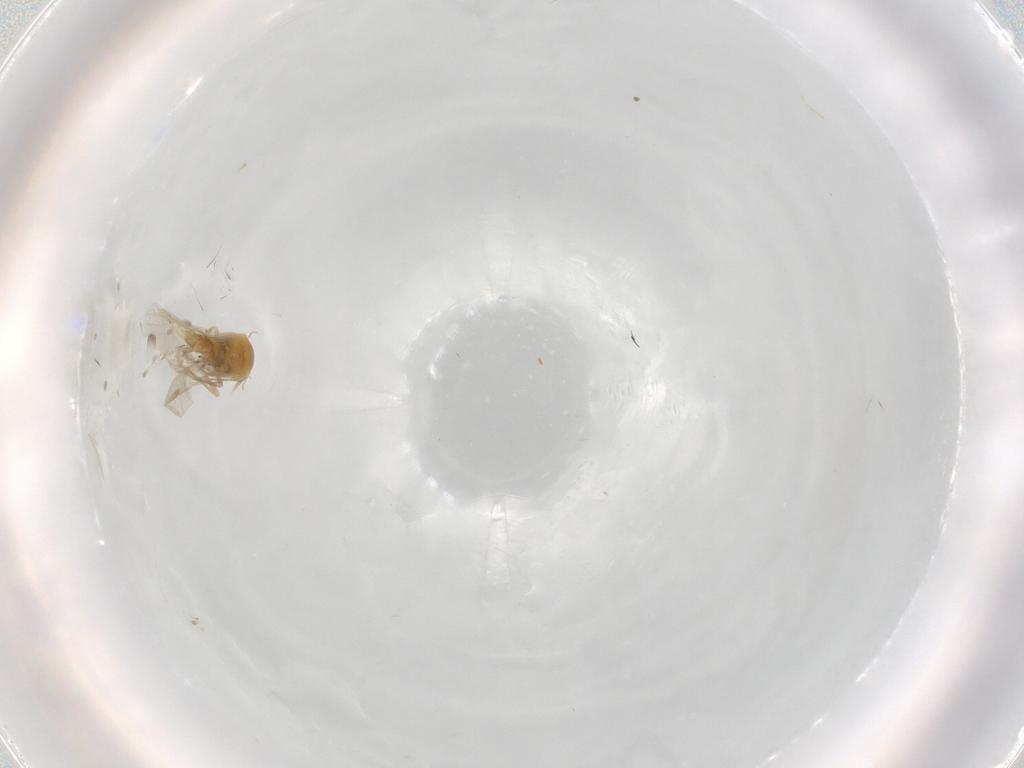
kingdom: Animalia
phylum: Arthropoda
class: Insecta
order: Hemiptera
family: Aleyrodidae
